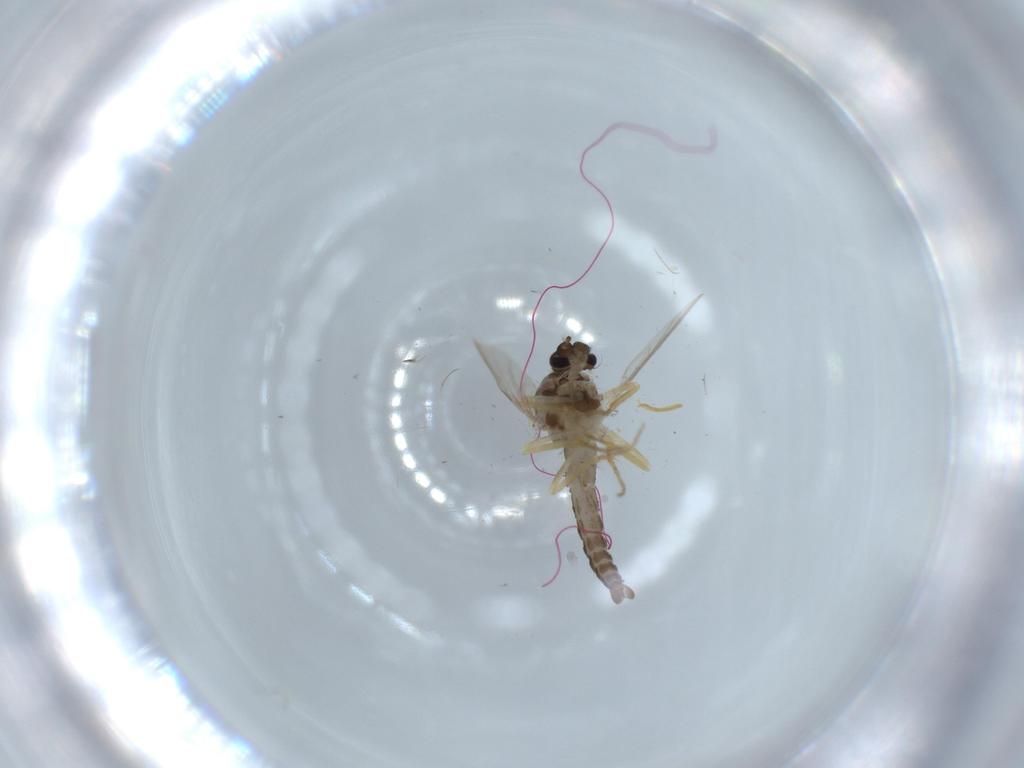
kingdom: Animalia
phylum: Arthropoda
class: Insecta
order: Diptera
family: Ceratopogonidae
